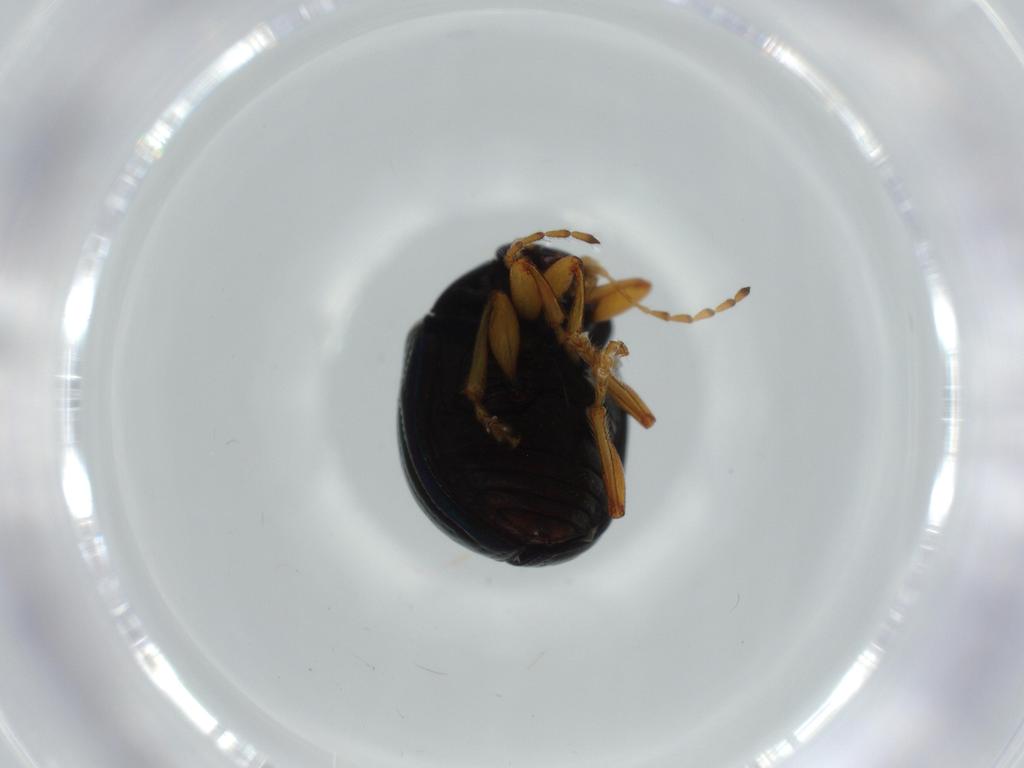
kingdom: Animalia
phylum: Arthropoda
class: Insecta
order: Coleoptera
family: Chrysomelidae
